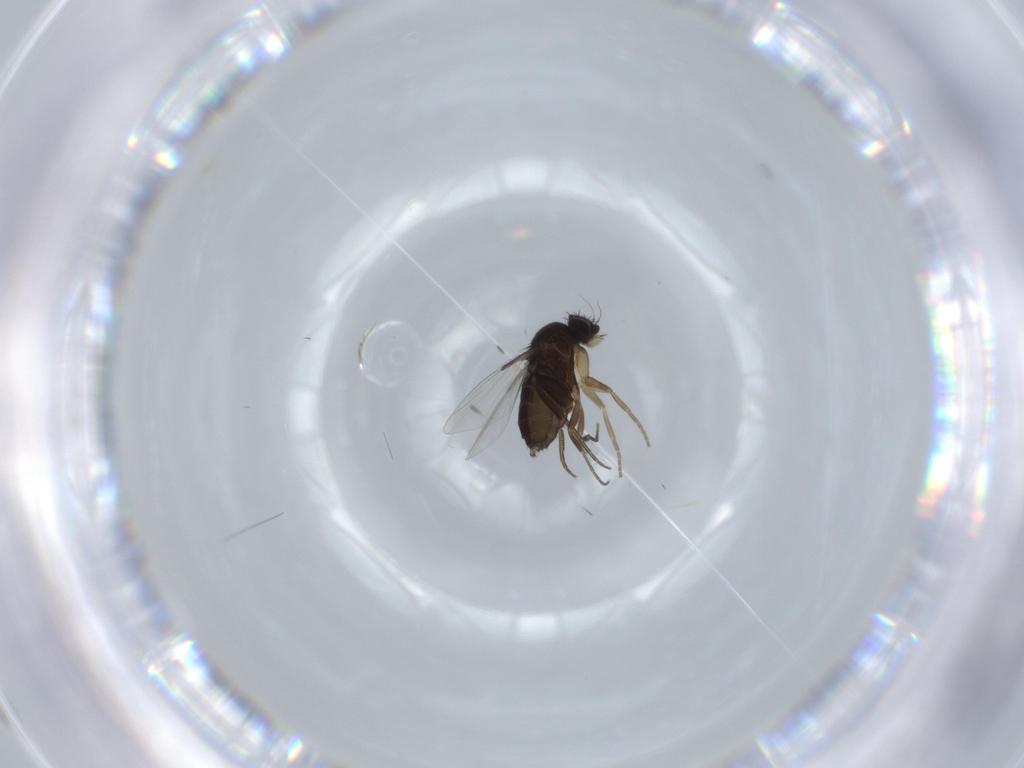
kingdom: Animalia
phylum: Arthropoda
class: Insecta
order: Diptera
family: Phoridae
